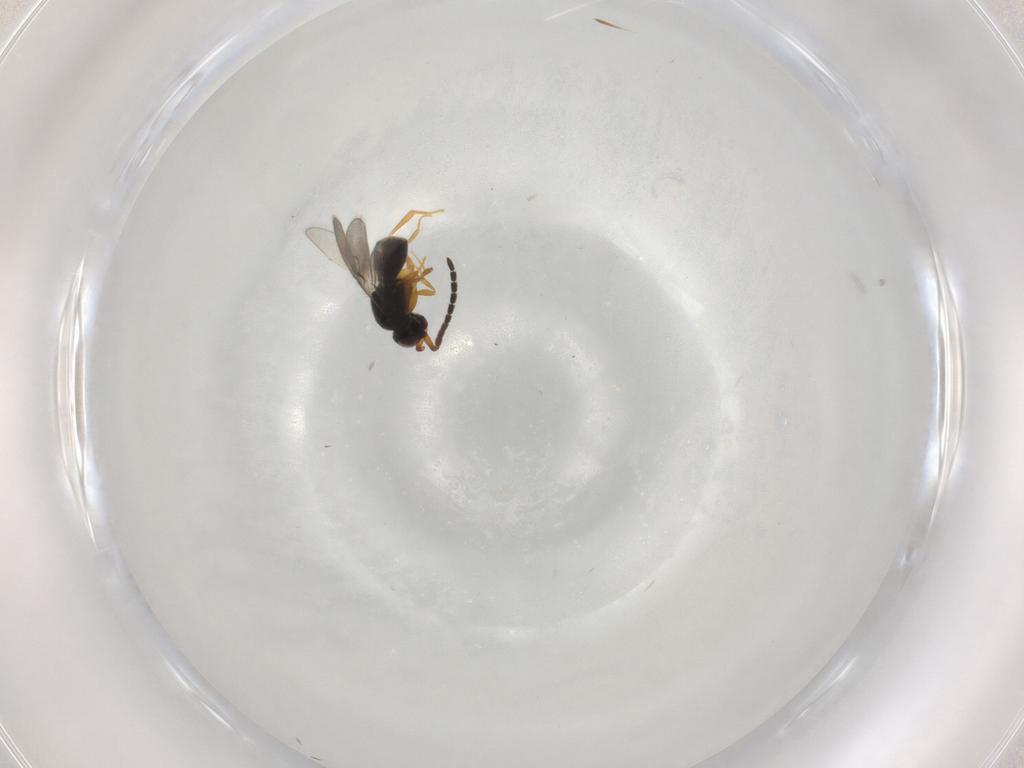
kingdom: Animalia
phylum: Arthropoda
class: Insecta
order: Hymenoptera
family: Ceraphronidae
